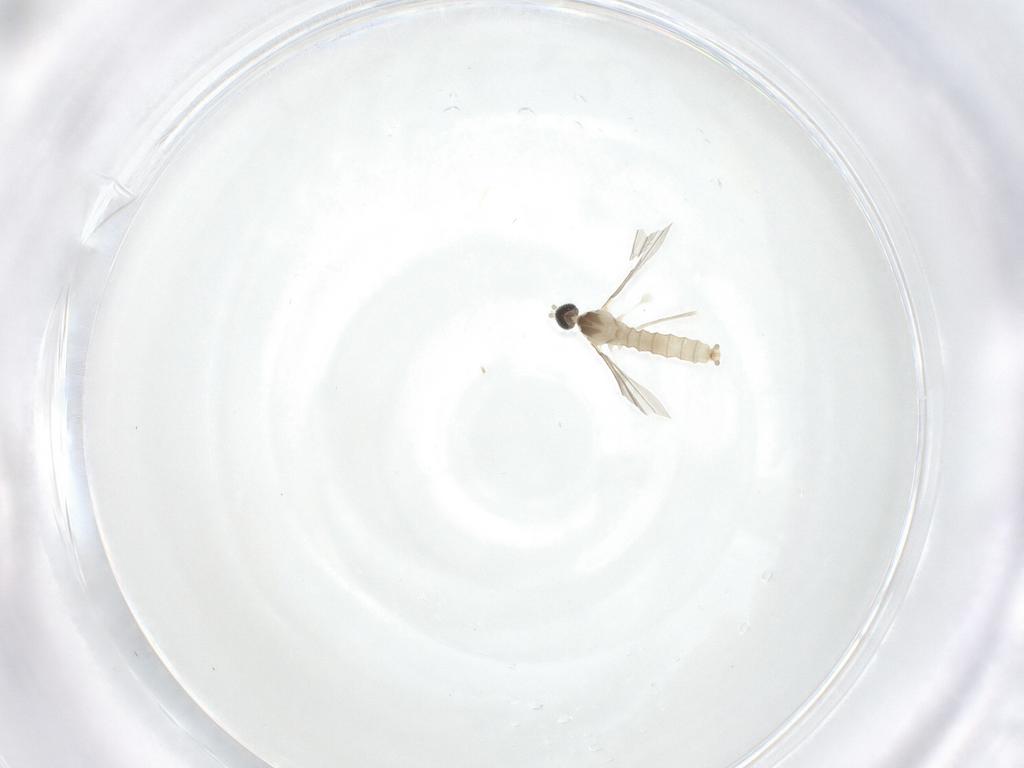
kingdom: Animalia
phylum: Arthropoda
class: Insecta
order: Diptera
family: Cecidomyiidae
